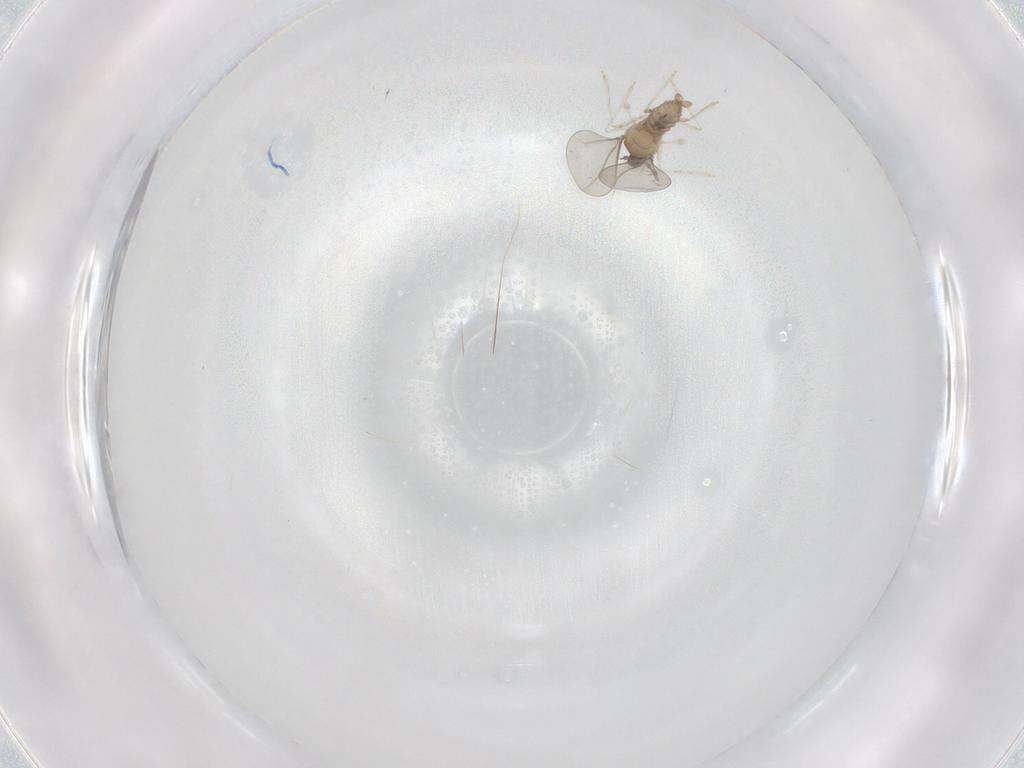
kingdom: Animalia
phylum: Arthropoda
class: Insecta
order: Diptera
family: Cecidomyiidae
